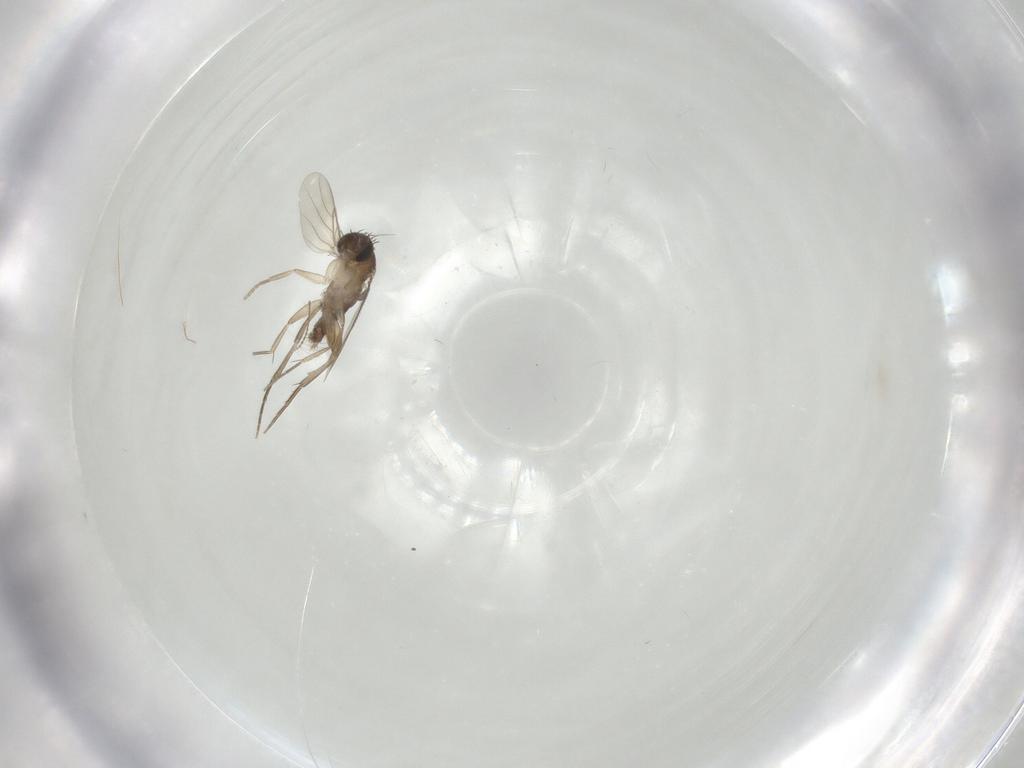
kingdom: Animalia
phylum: Arthropoda
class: Insecta
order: Diptera
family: Chironomidae
